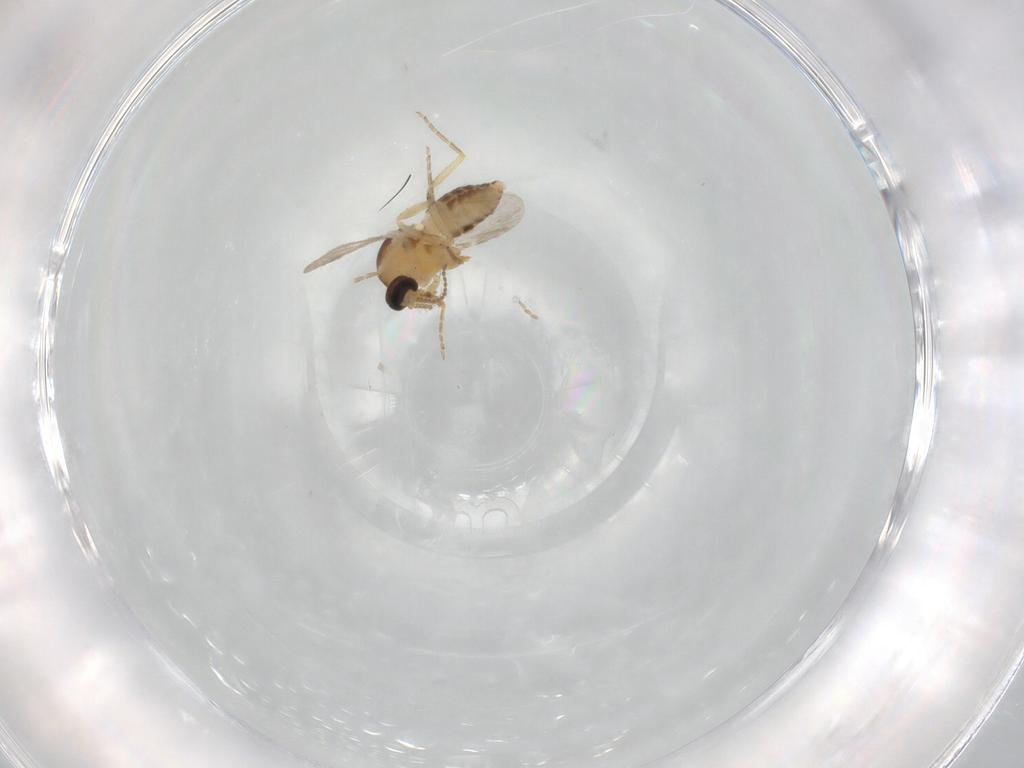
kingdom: Animalia
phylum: Arthropoda
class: Insecta
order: Diptera
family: Ceratopogonidae
